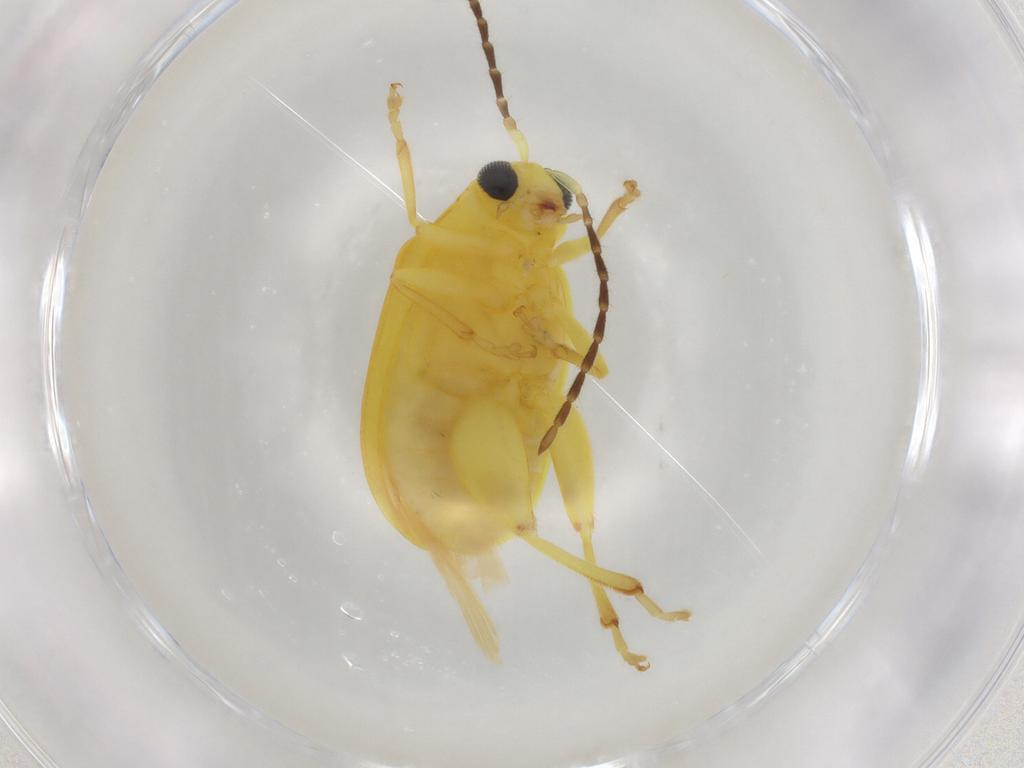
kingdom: Animalia
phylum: Arthropoda
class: Insecta
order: Coleoptera
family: Chrysomelidae
